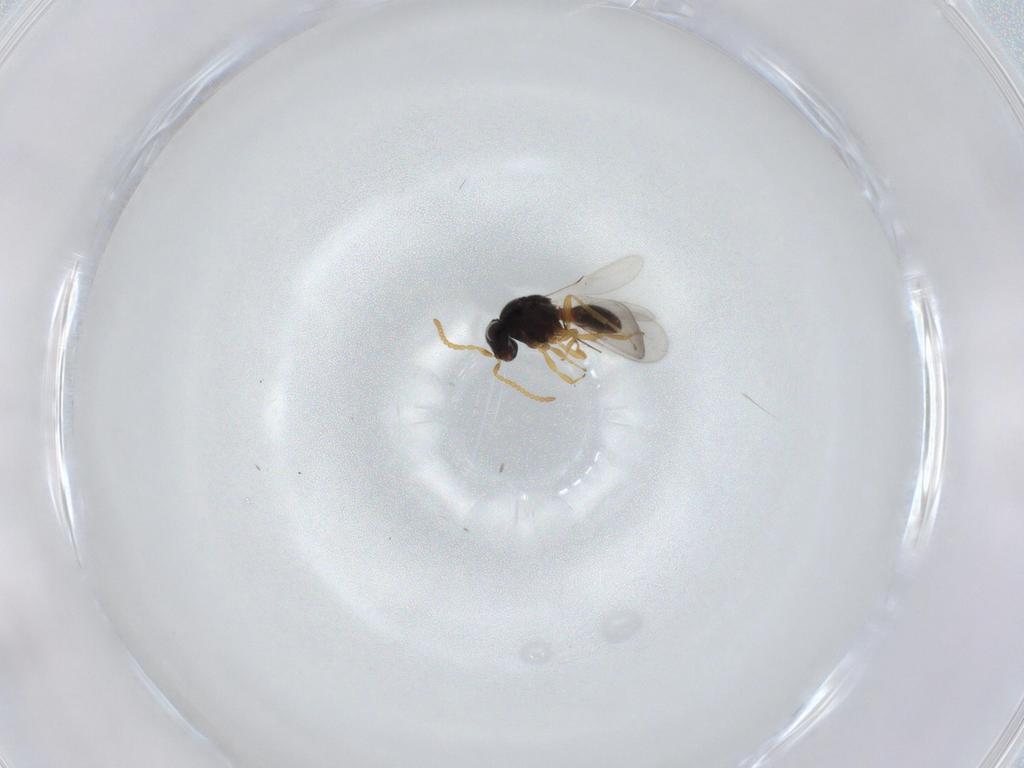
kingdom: Animalia
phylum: Arthropoda
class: Insecta
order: Hymenoptera
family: Scelionidae
